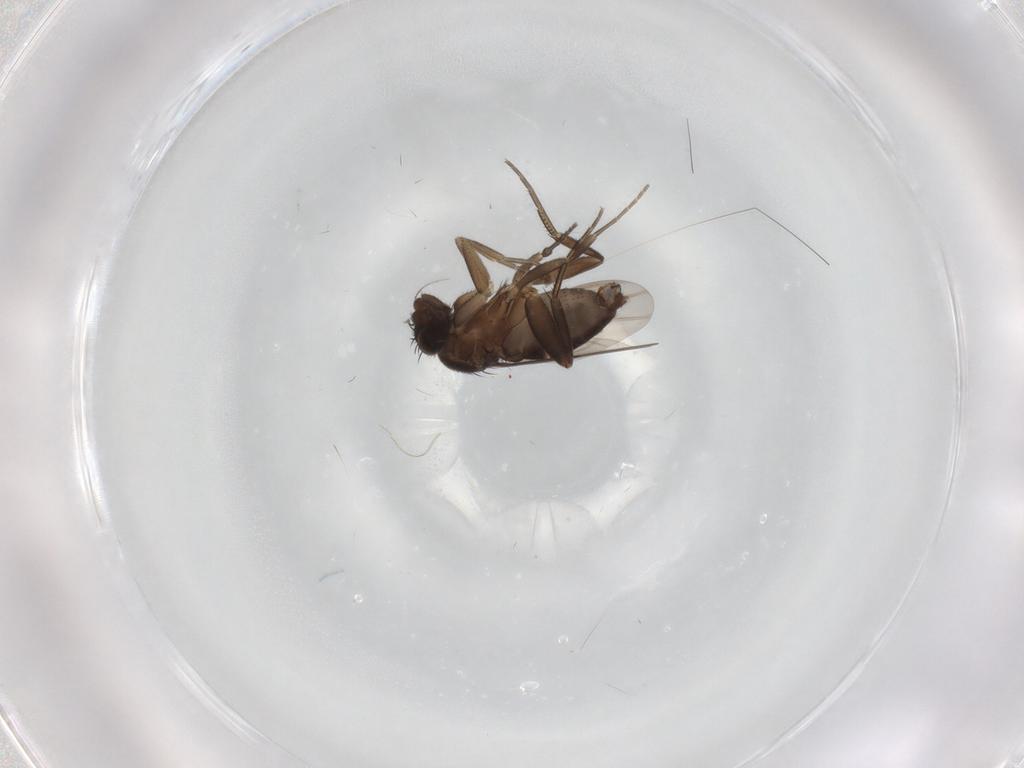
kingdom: Animalia
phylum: Arthropoda
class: Insecta
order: Diptera
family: Phoridae
